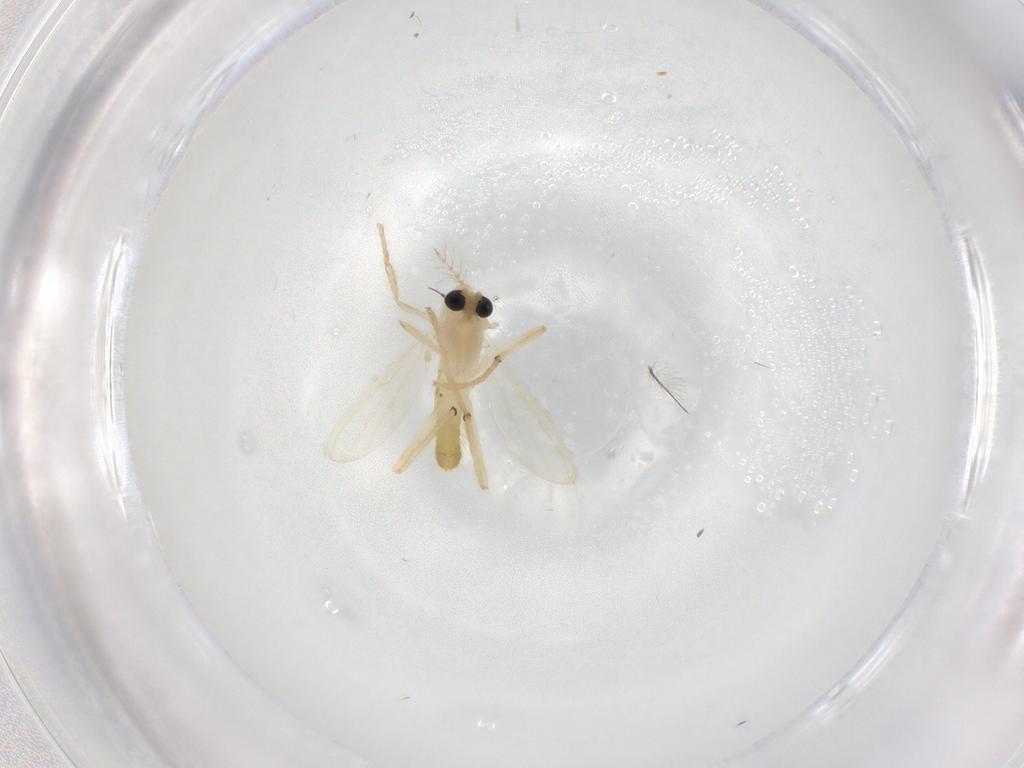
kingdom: Animalia
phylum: Arthropoda
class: Insecta
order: Diptera
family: Chironomidae
